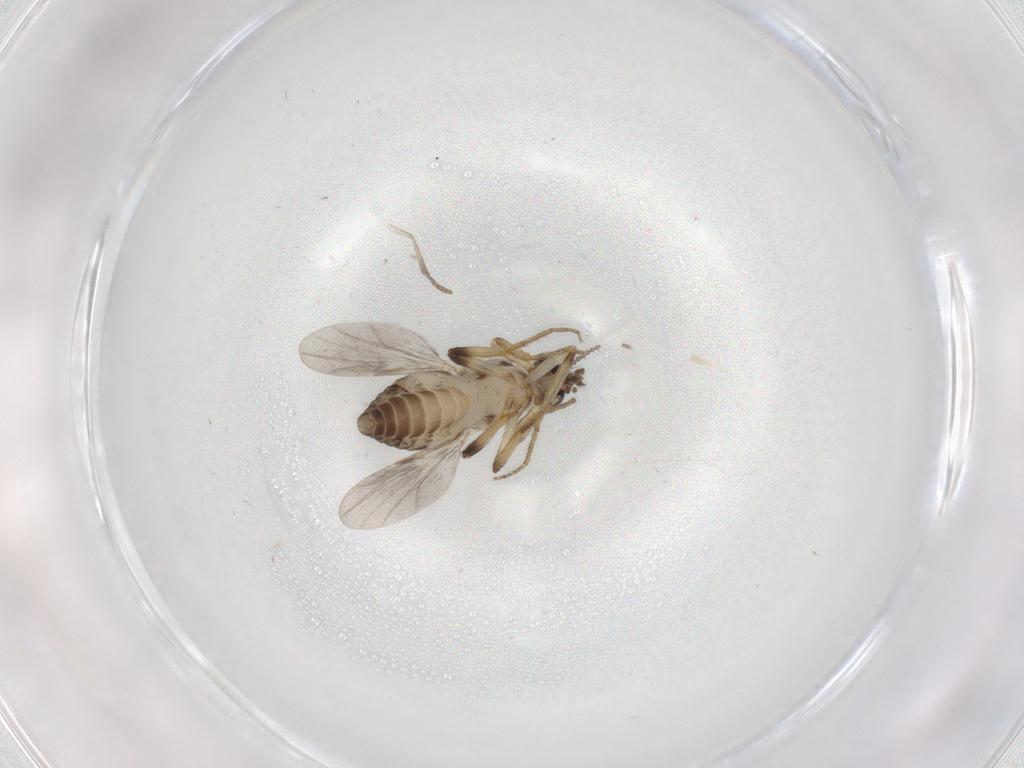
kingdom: Animalia
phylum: Arthropoda
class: Insecta
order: Diptera
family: Ceratopogonidae
